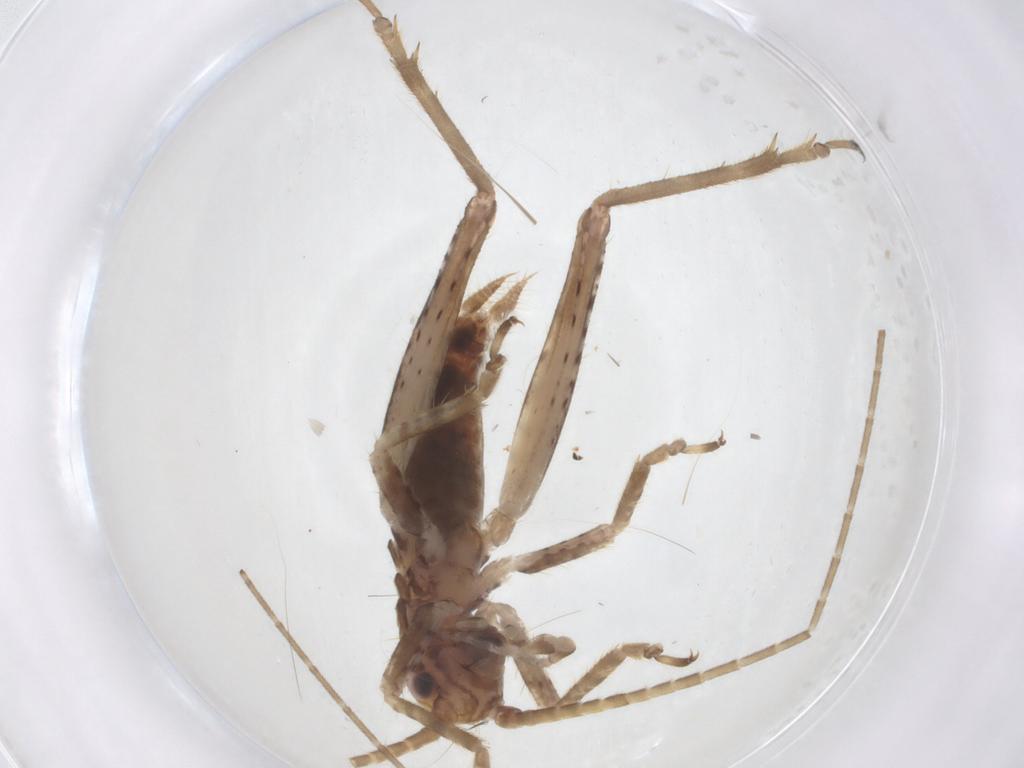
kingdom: Animalia
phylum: Arthropoda
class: Insecta
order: Orthoptera
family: Gryllidae
